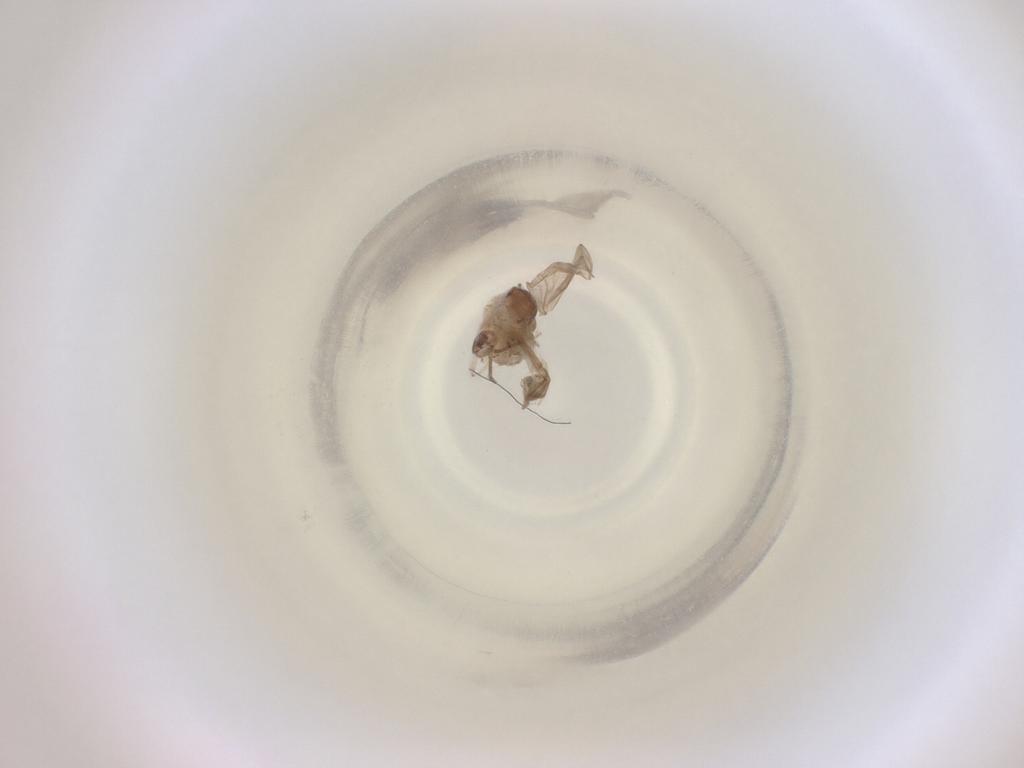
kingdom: Animalia
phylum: Arthropoda
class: Insecta
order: Diptera
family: Cecidomyiidae
